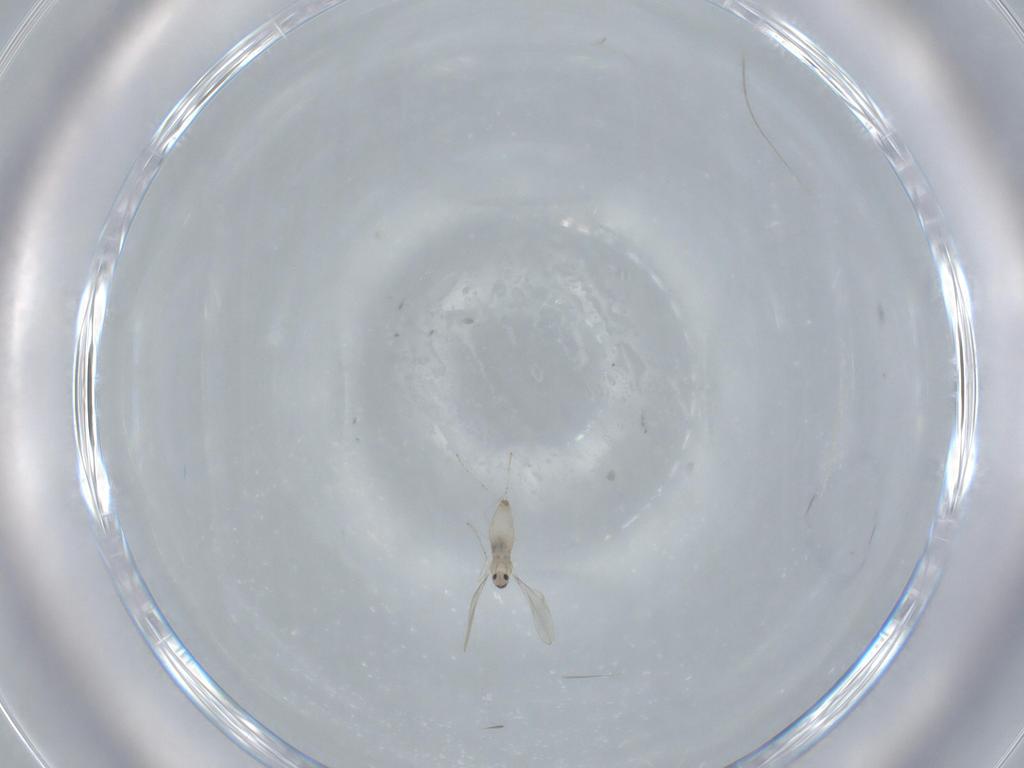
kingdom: Animalia
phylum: Arthropoda
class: Insecta
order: Diptera
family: Cecidomyiidae
